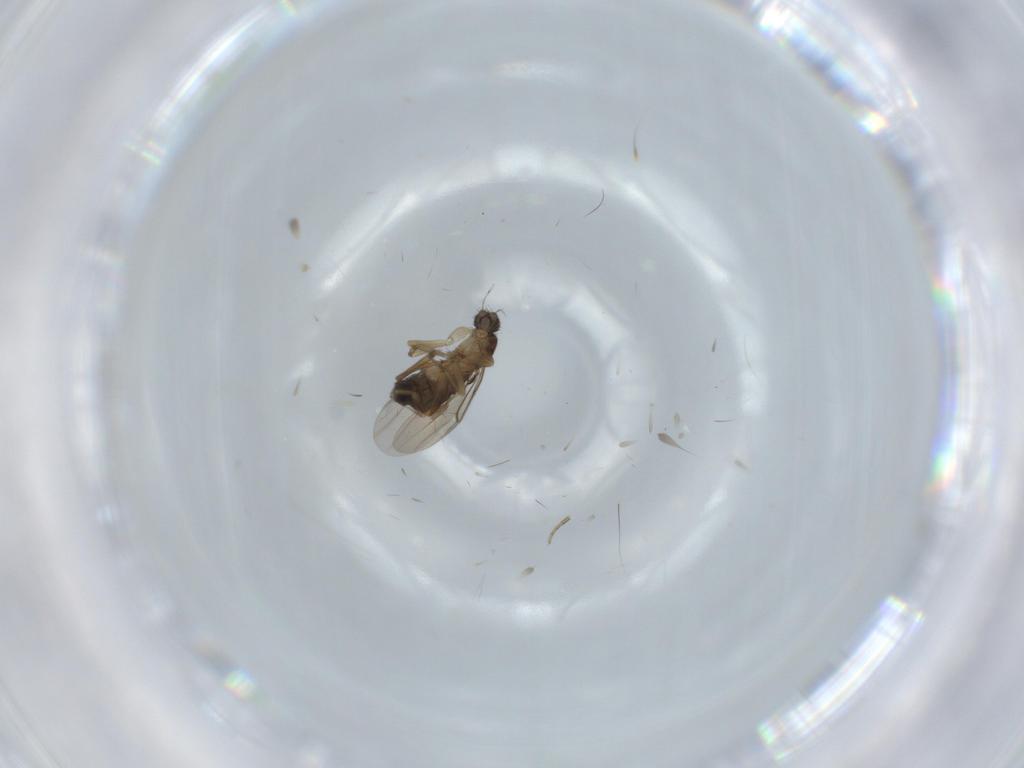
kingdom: Animalia
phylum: Arthropoda
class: Insecta
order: Diptera
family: Phoridae
